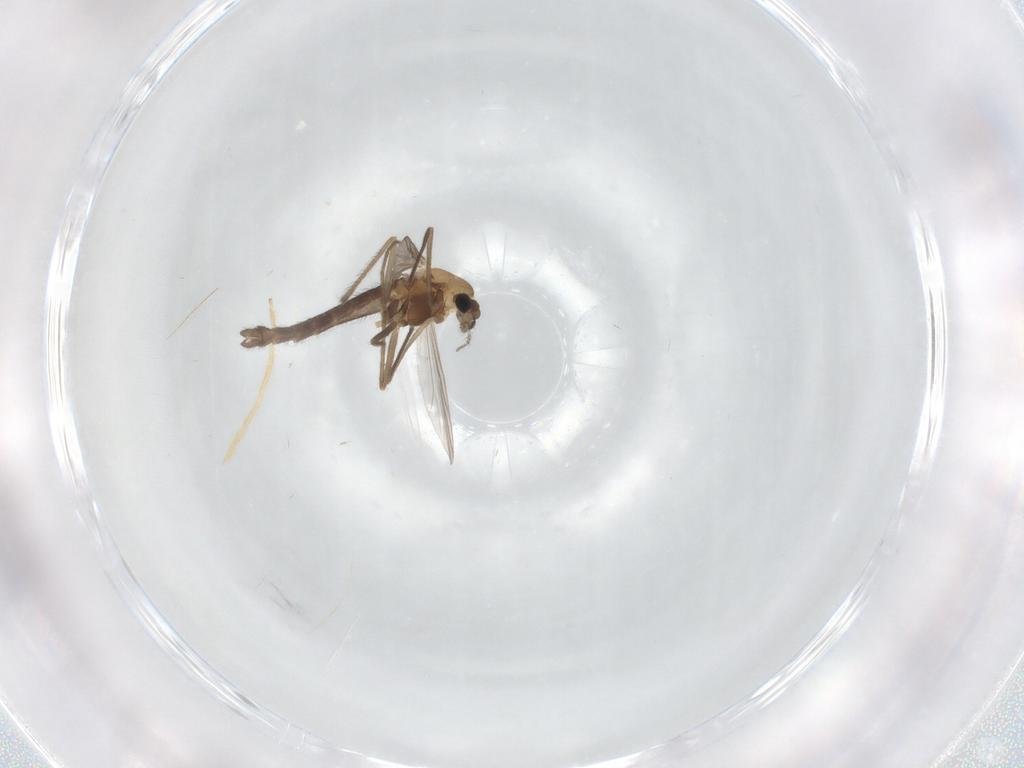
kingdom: Animalia
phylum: Arthropoda
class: Insecta
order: Diptera
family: Chironomidae
